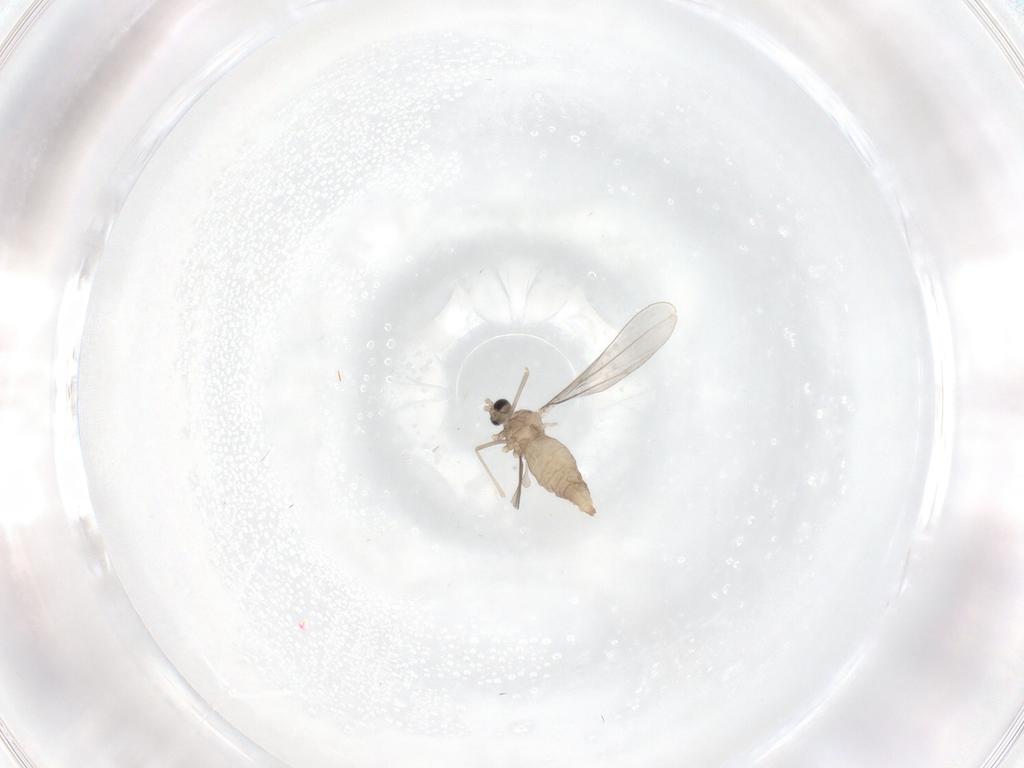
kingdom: Animalia
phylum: Arthropoda
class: Insecta
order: Diptera
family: Cecidomyiidae
